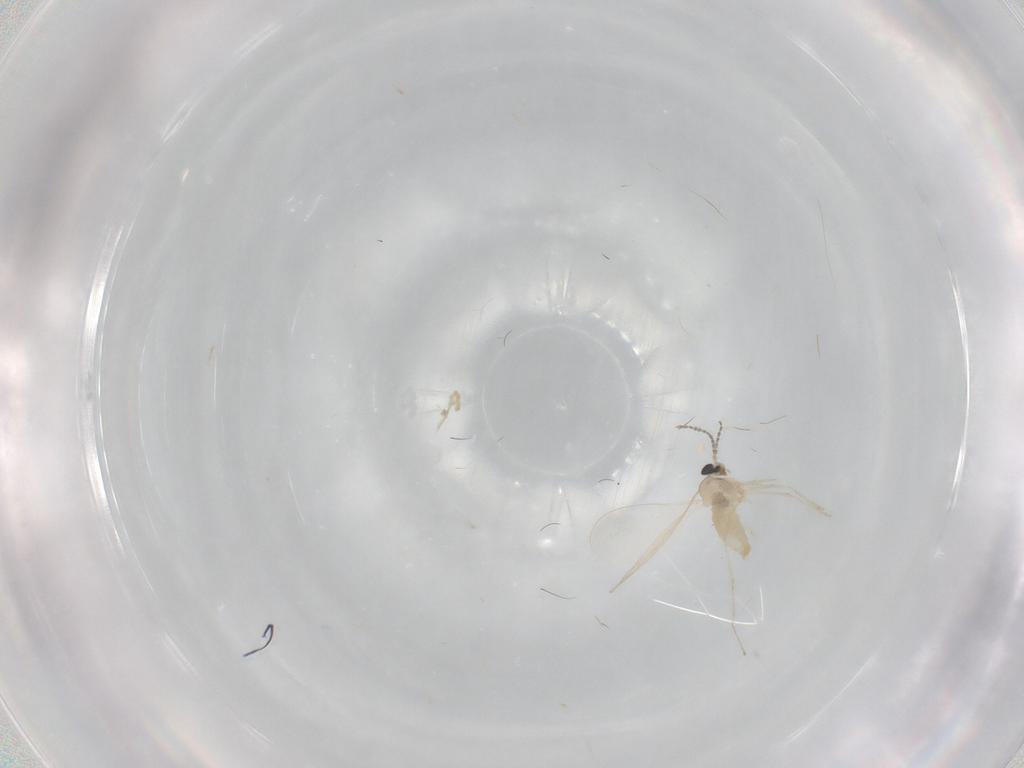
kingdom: Animalia
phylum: Arthropoda
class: Insecta
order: Diptera
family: Cecidomyiidae
